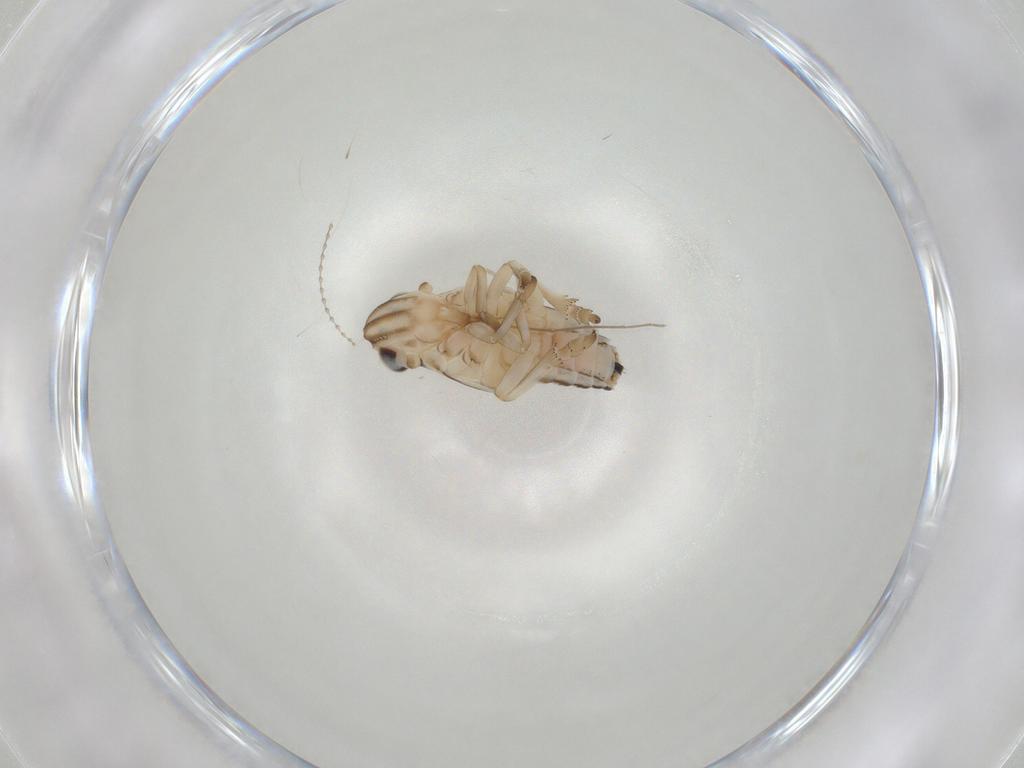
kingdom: Animalia
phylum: Arthropoda
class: Insecta
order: Hemiptera
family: Fulgoroidea_incertae_sedis
